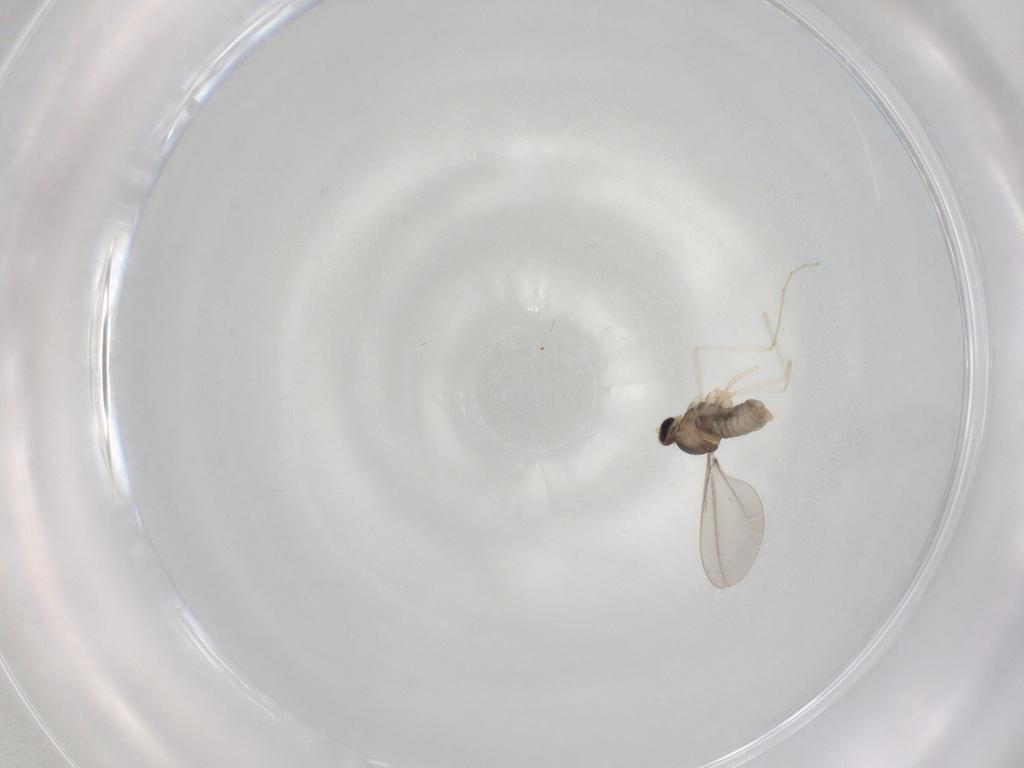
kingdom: Animalia
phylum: Arthropoda
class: Insecta
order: Diptera
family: Cecidomyiidae
